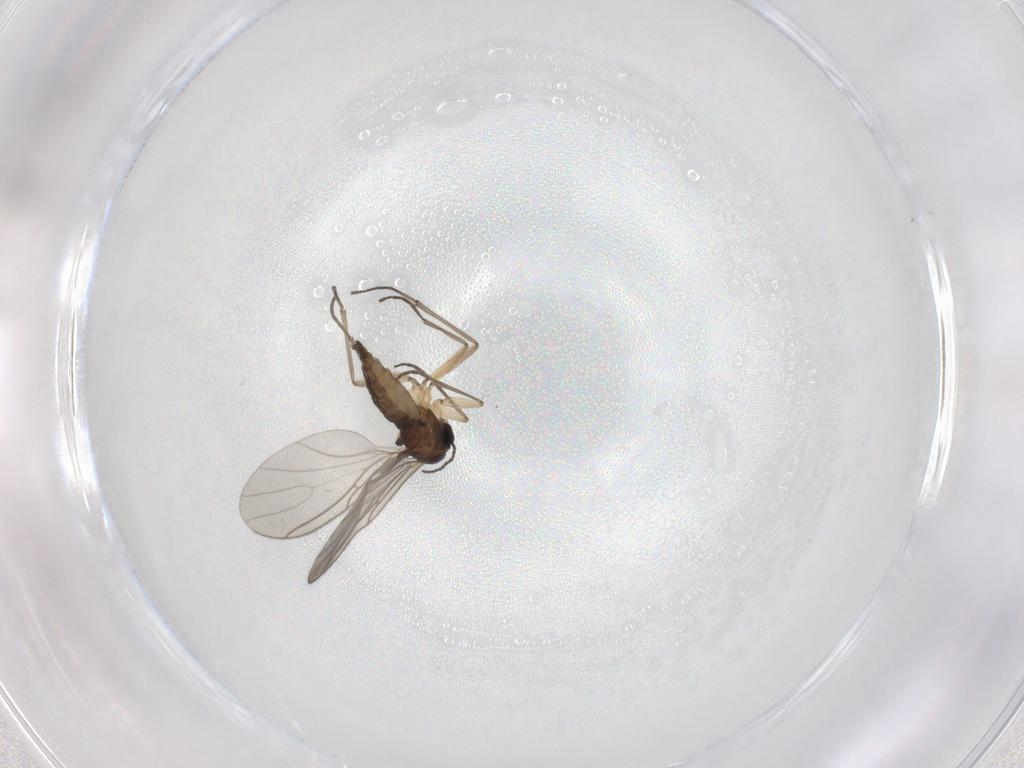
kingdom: Animalia
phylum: Arthropoda
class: Insecta
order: Diptera
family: Sciaridae
